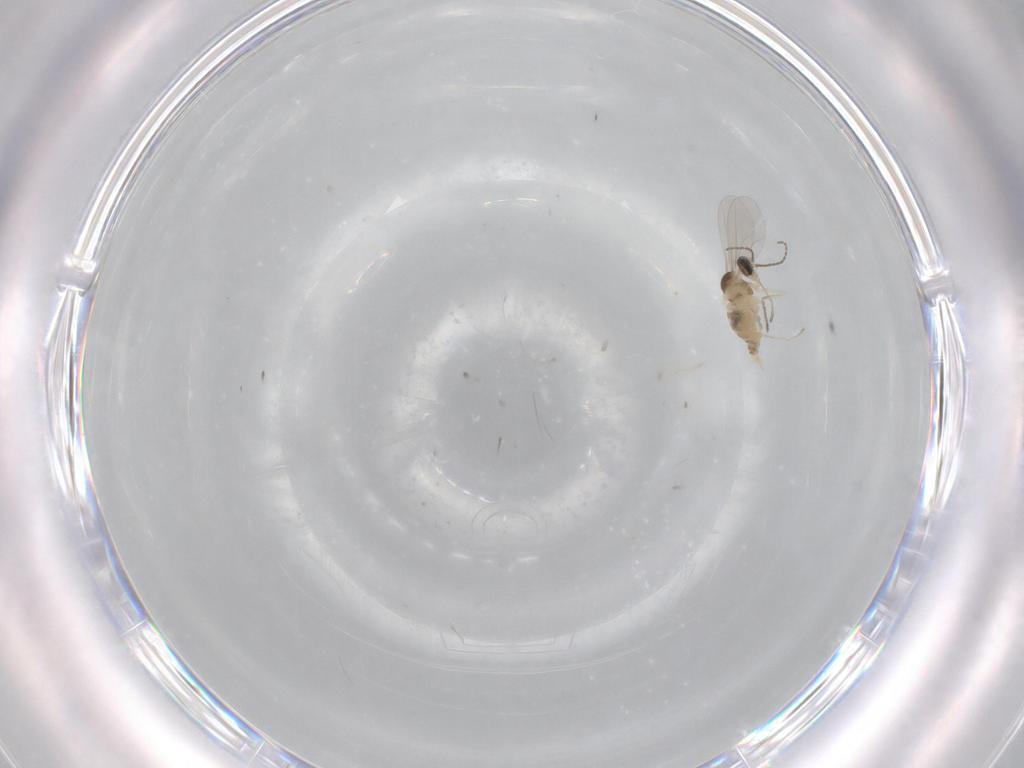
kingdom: Animalia
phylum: Arthropoda
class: Insecta
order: Diptera
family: Cecidomyiidae
